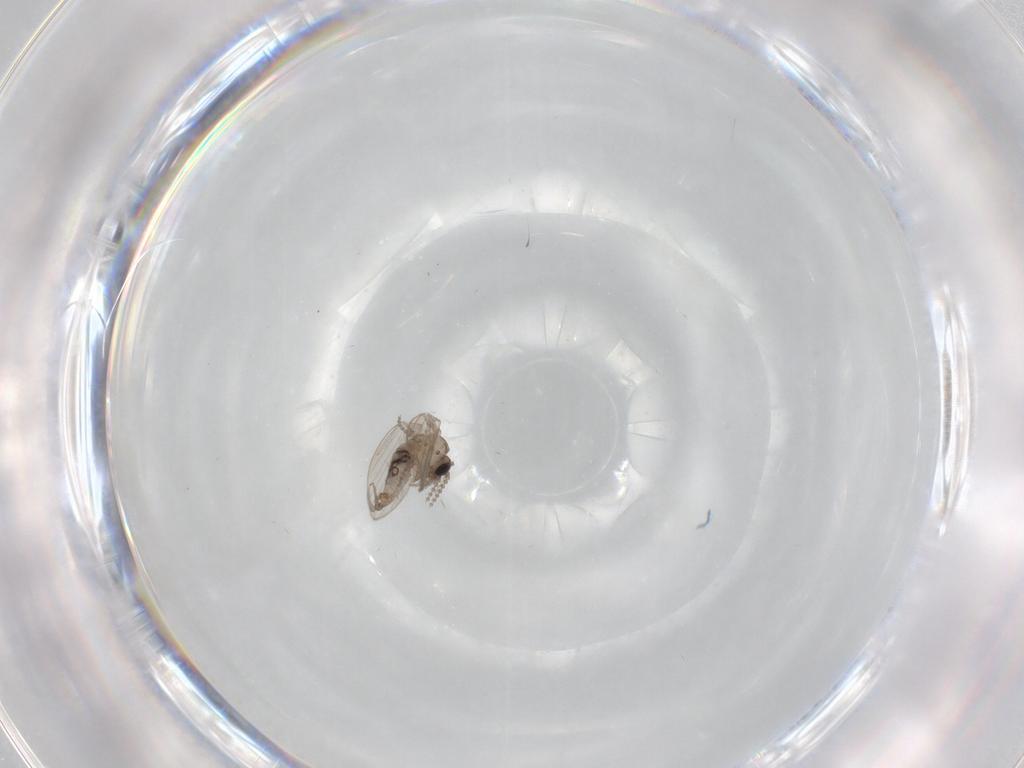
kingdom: Animalia
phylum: Arthropoda
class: Insecta
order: Diptera
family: Psychodidae
